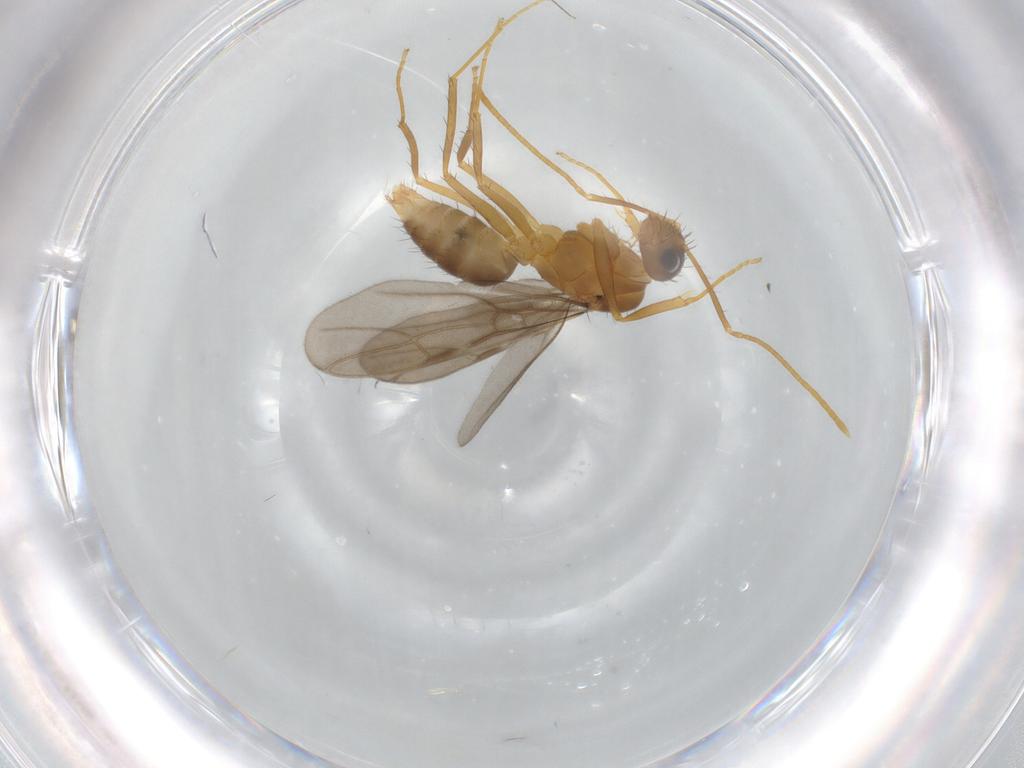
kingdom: Animalia
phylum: Arthropoda
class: Insecta
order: Hymenoptera
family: Formicidae
